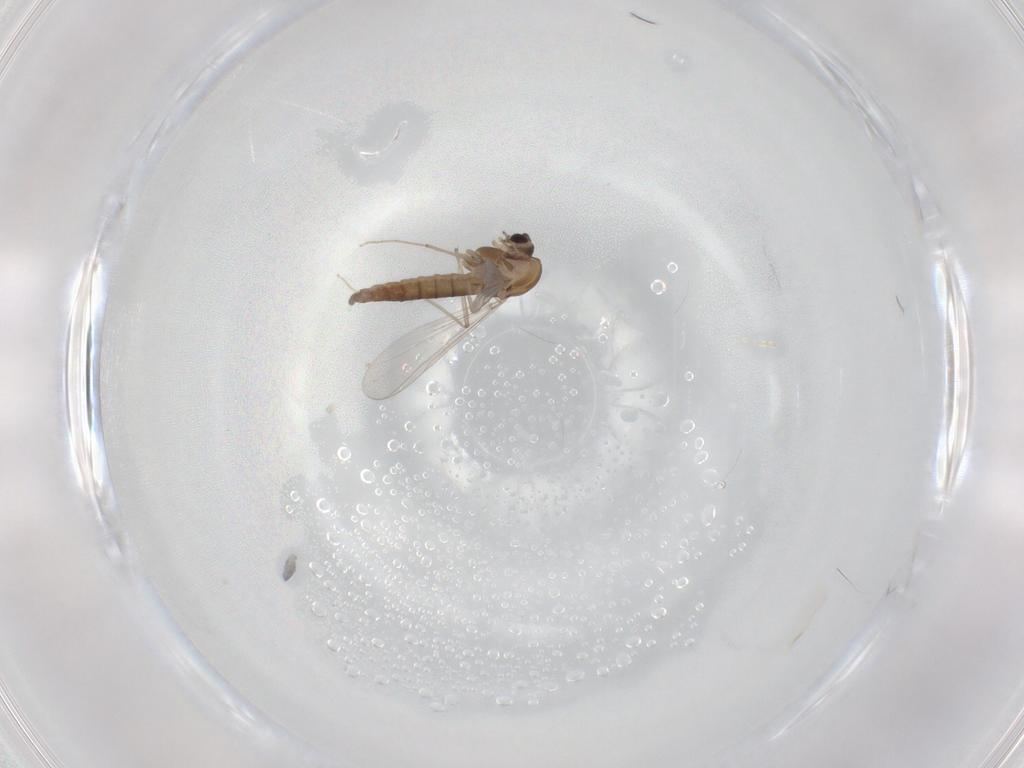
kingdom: Animalia
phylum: Arthropoda
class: Insecta
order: Diptera
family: Chironomidae
